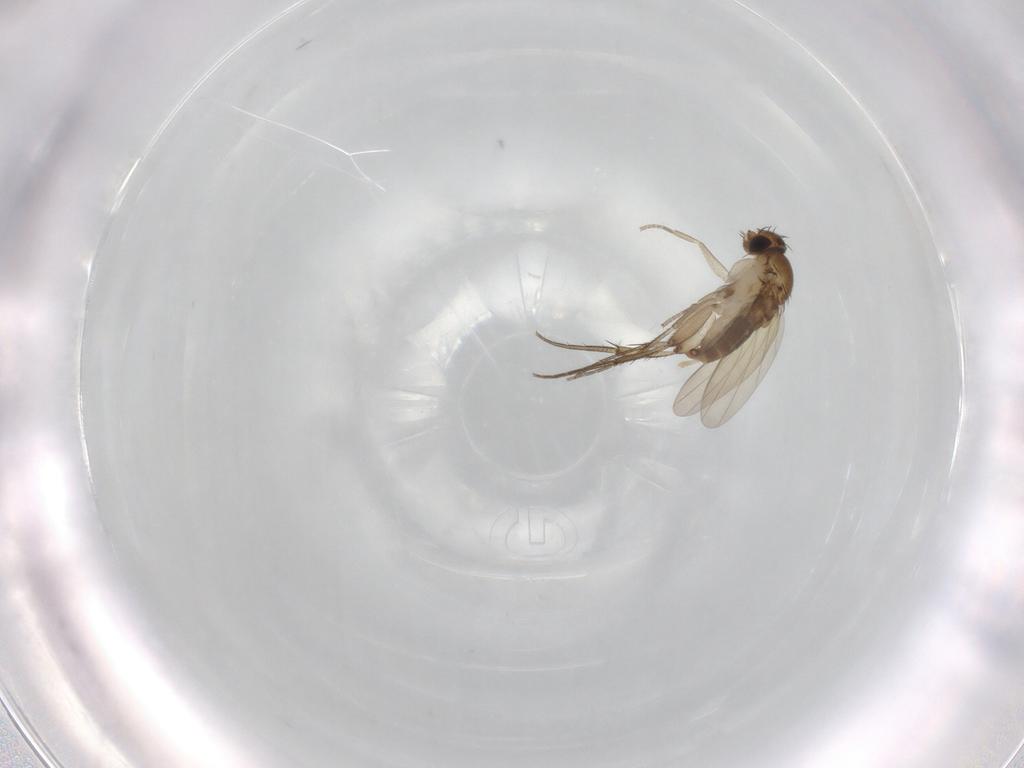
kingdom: Animalia
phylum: Arthropoda
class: Insecta
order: Diptera
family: Phoridae
